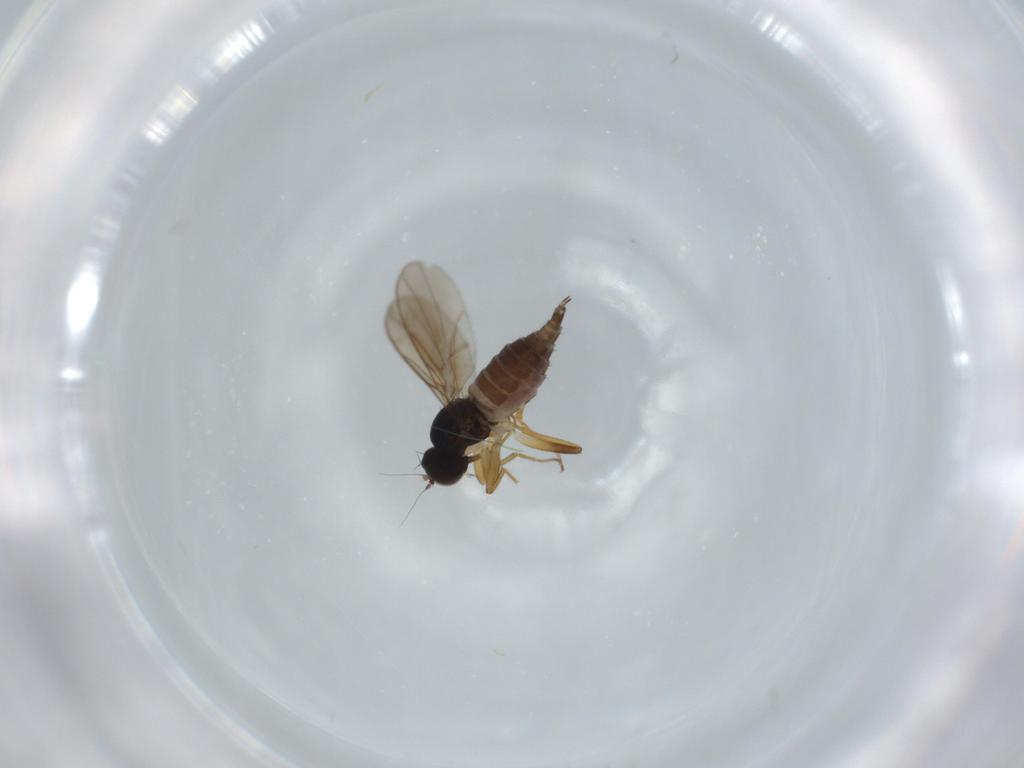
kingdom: Animalia
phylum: Arthropoda
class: Insecta
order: Diptera
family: Hybotidae
